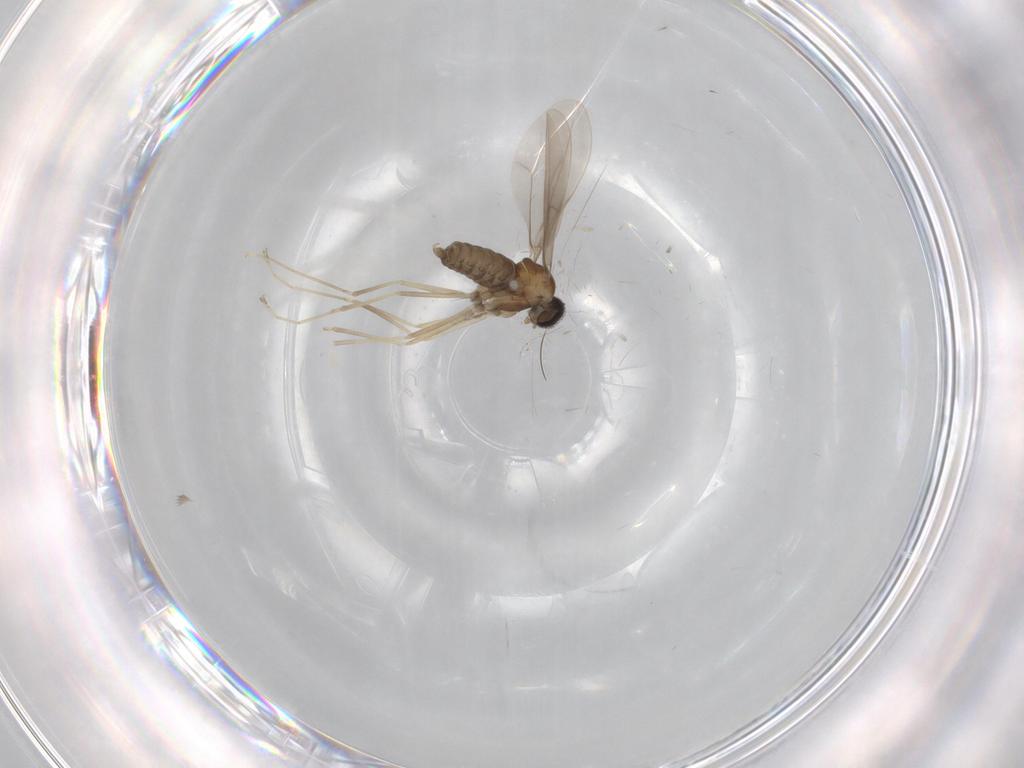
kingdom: Animalia
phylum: Arthropoda
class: Insecta
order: Diptera
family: Cecidomyiidae
